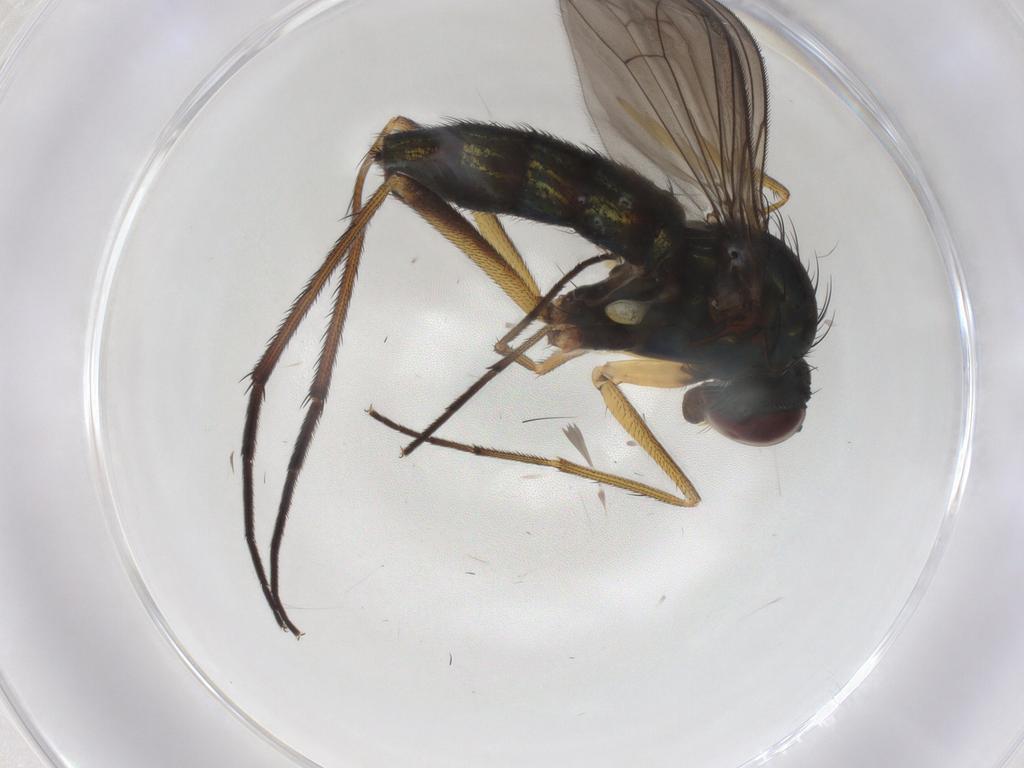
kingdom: Animalia
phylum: Arthropoda
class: Insecta
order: Diptera
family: Dolichopodidae
